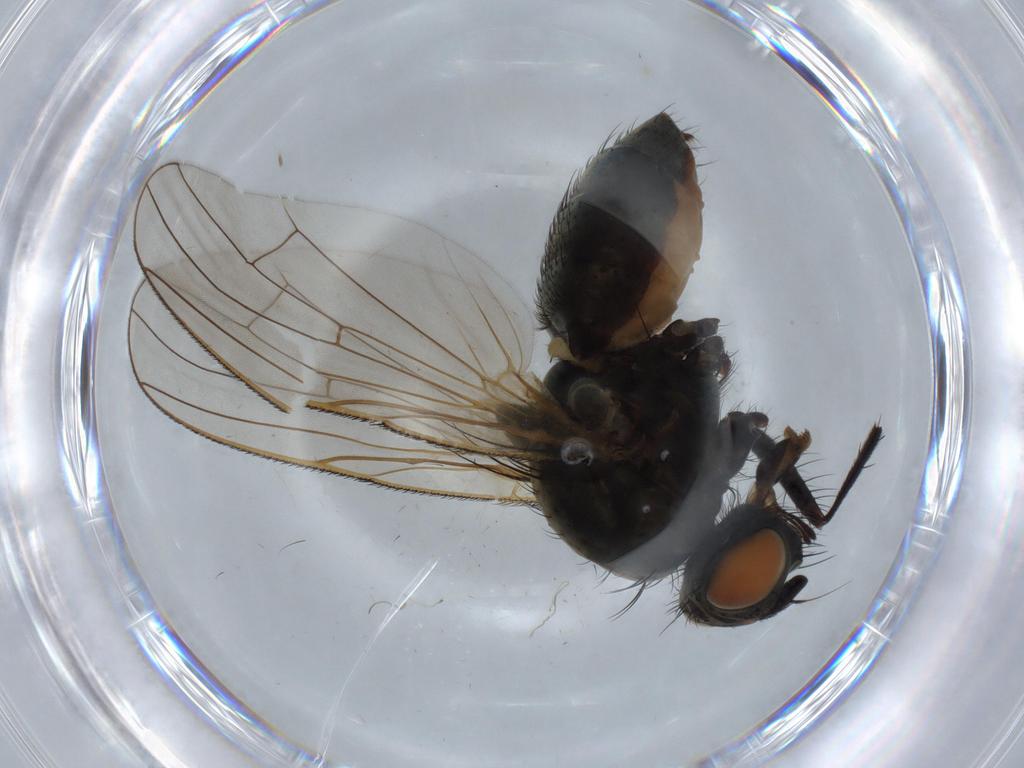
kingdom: Animalia
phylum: Arthropoda
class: Insecta
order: Diptera
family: Anthomyiidae
